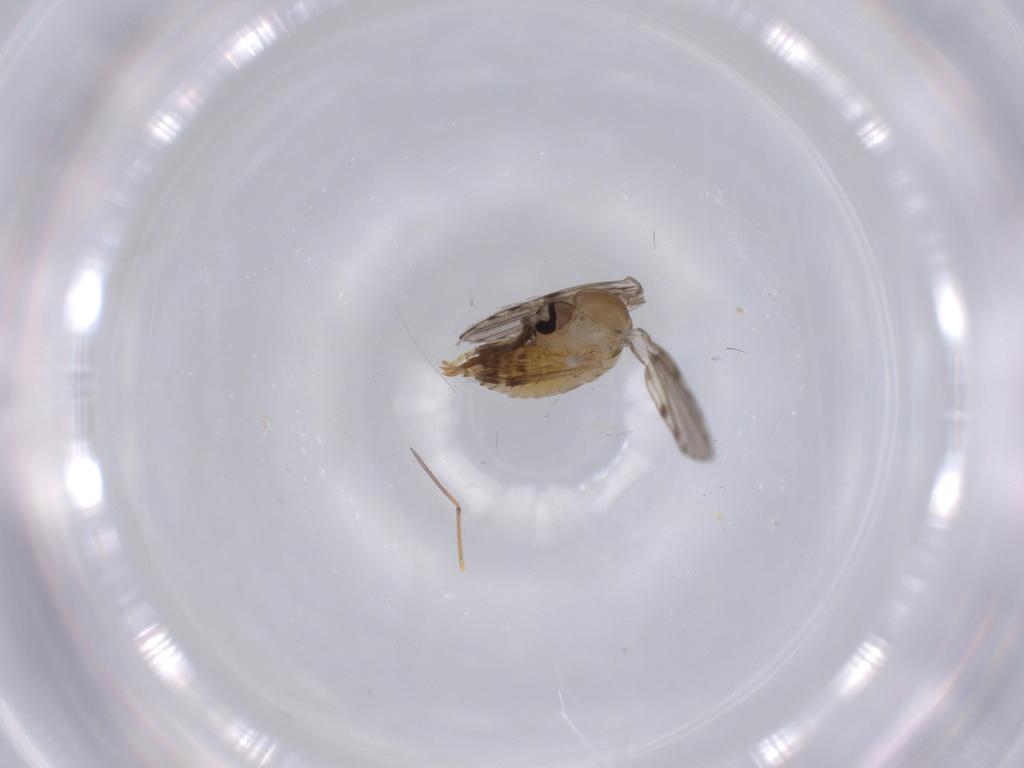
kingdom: Animalia
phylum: Arthropoda
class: Insecta
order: Diptera
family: Psychodidae
